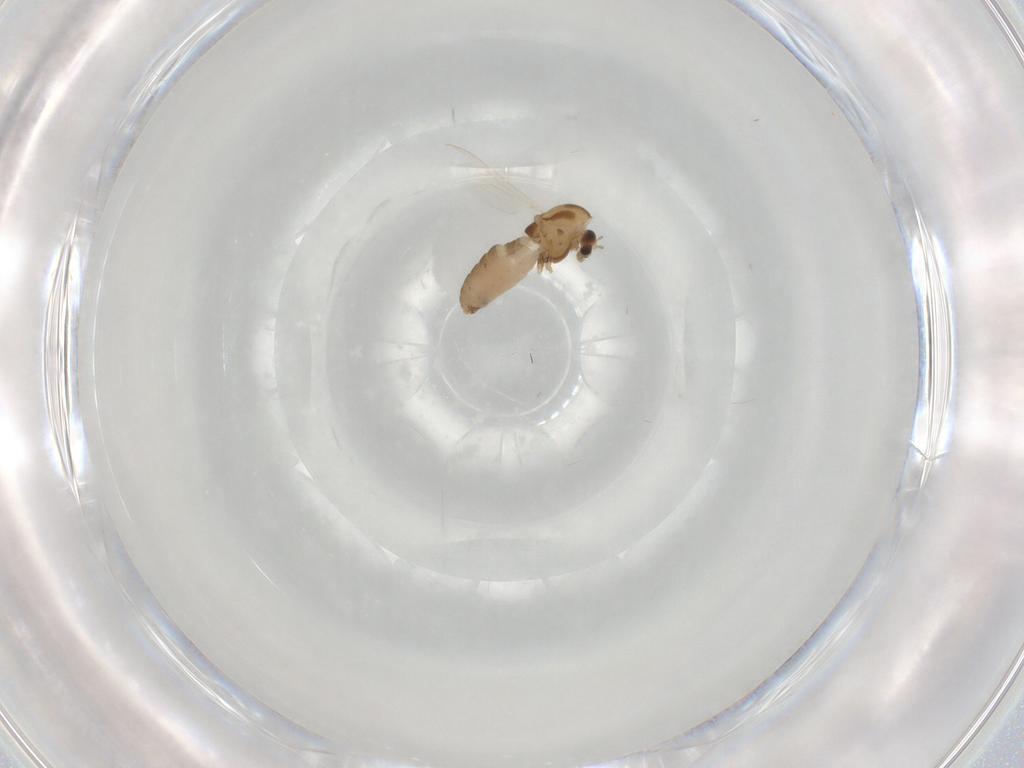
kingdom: Animalia
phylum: Arthropoda
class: Insecta
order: Diptera
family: Chironomidae
